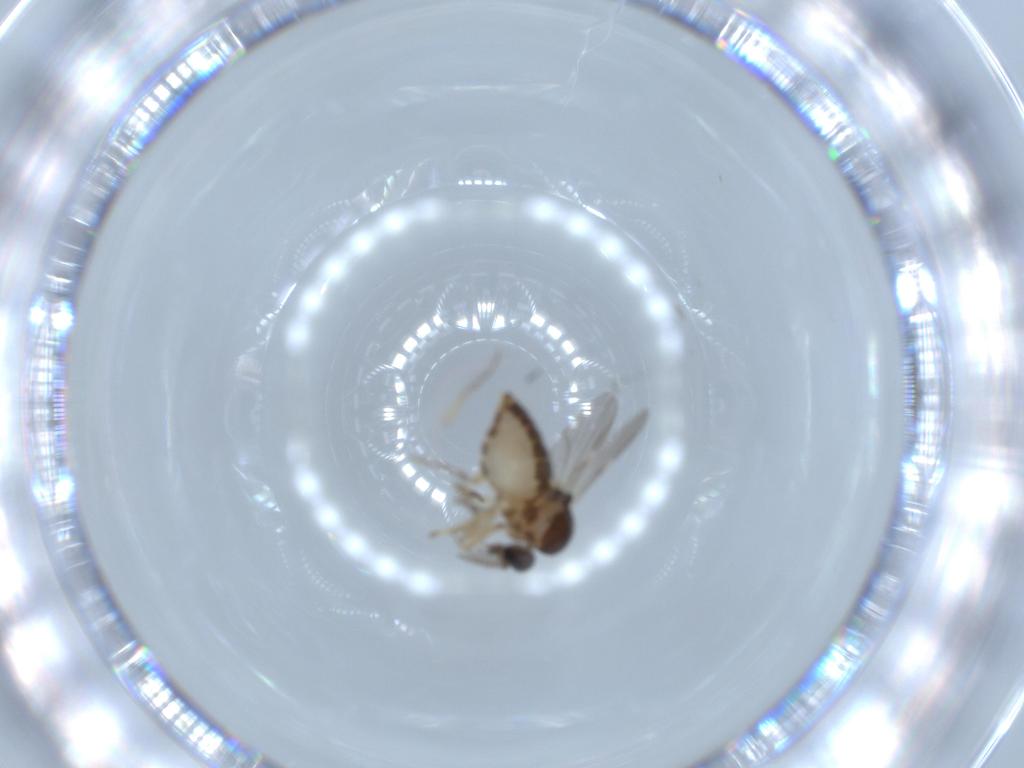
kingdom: Animalia
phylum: Arthropoda
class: Insecta
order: Diptera
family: Ceratopogonidae
